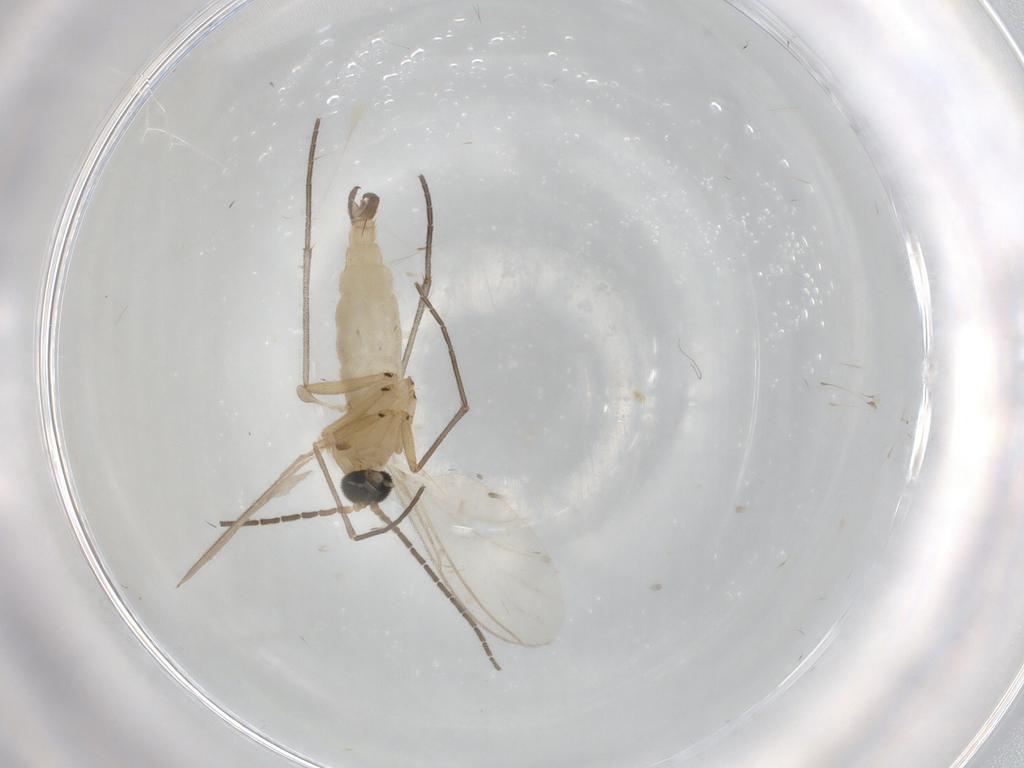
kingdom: Animalia
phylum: Arthropoda
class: Insecta
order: Diptera
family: Sciaridae
